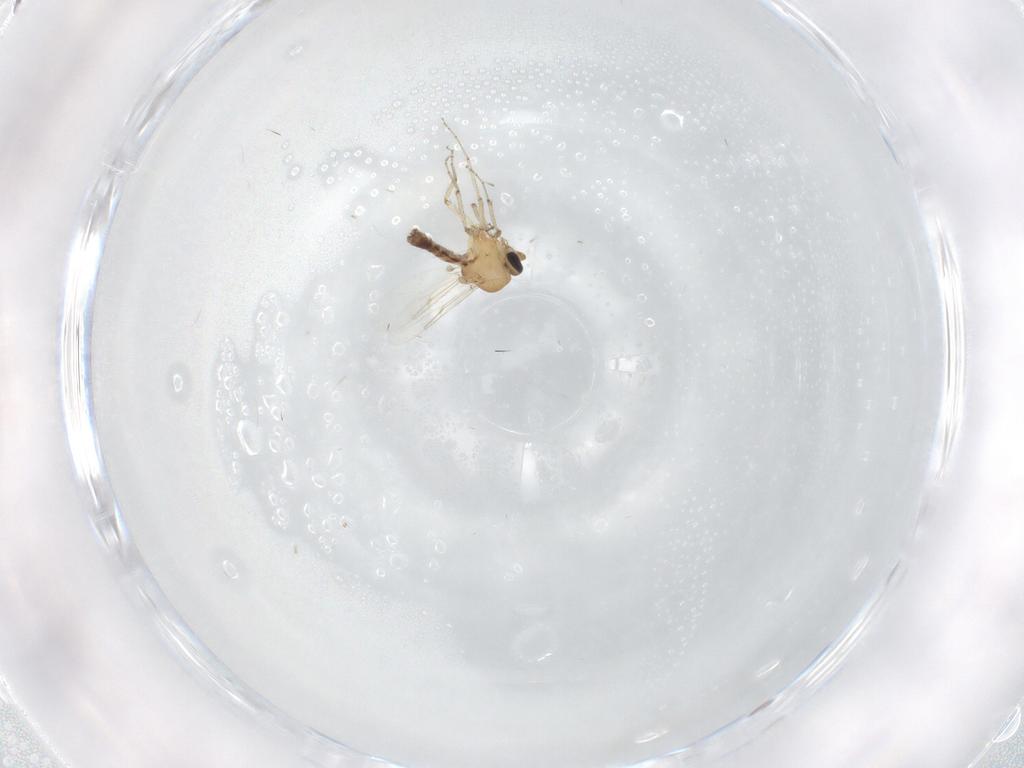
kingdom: Animalia
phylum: Arthropoda
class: Insecta
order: Diptera
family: Ceratopogonidae
